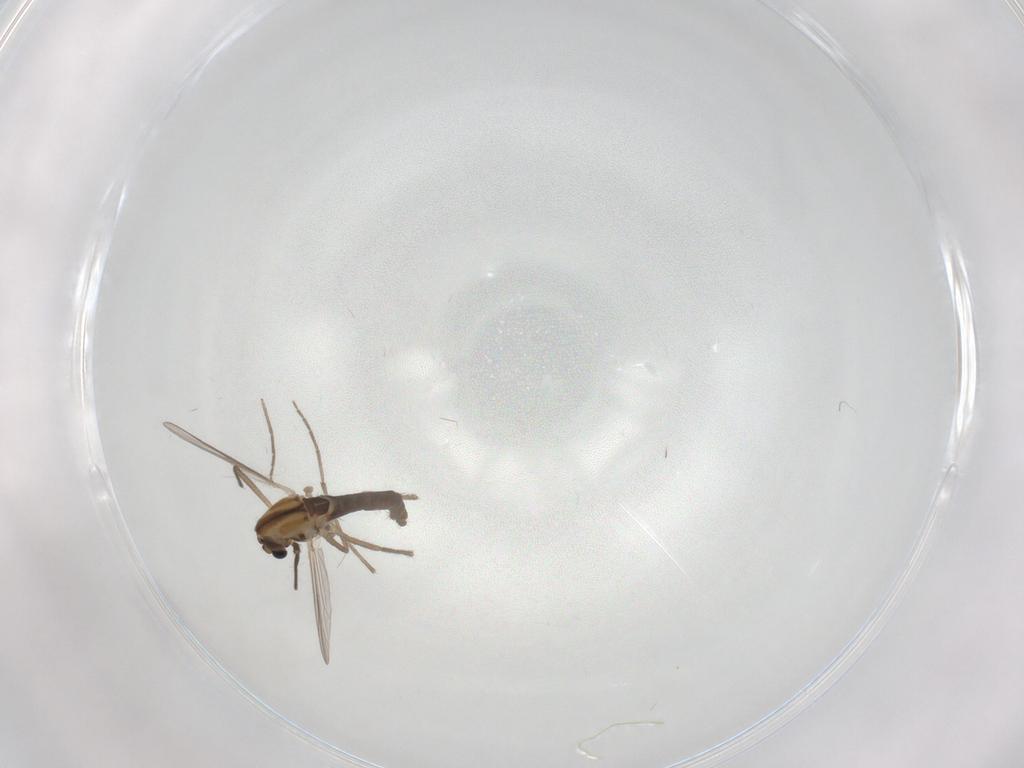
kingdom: Animalia
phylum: Arthropoda
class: Insecta
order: Diptera
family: Chironomidae
